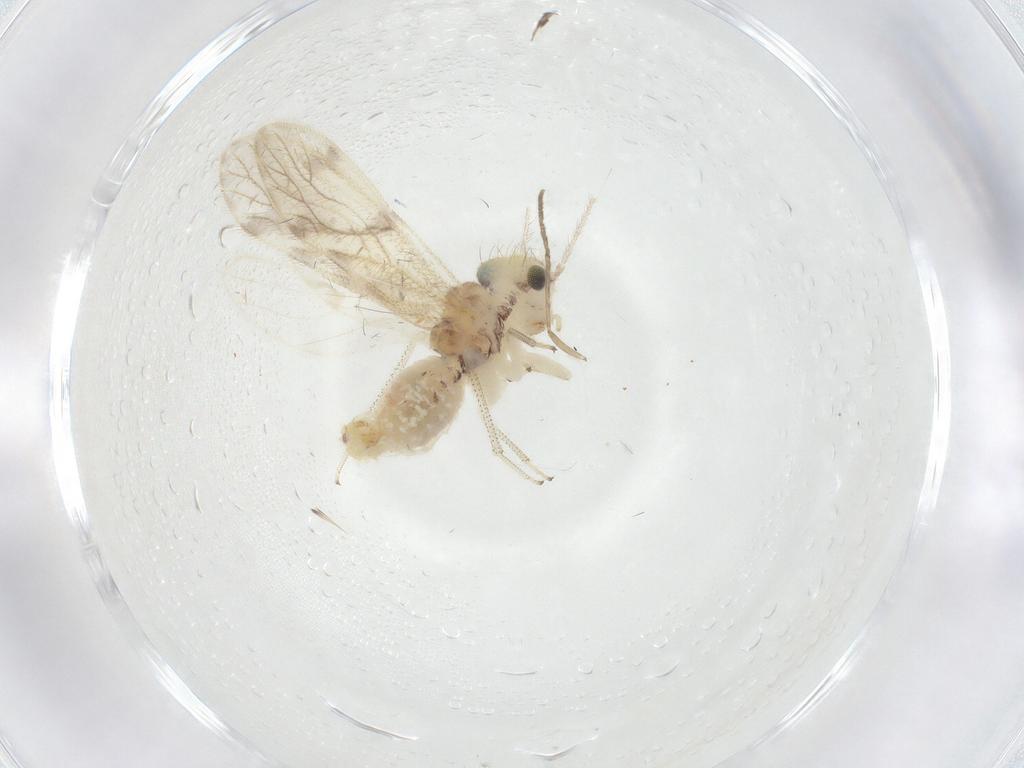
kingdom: Animalia
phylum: Arthropoda
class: Insecta
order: Psocodea
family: Pseudocaeciliidae
